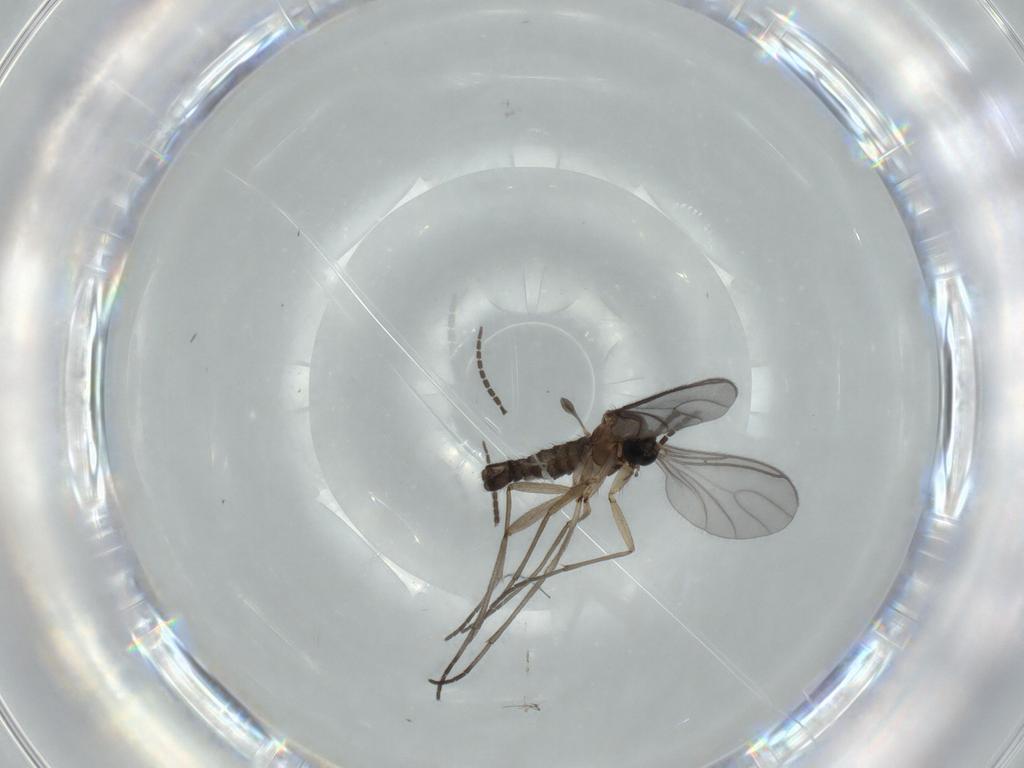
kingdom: Animalia
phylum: Arthropoda
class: Insecta
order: Diptera
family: Sciaridae
